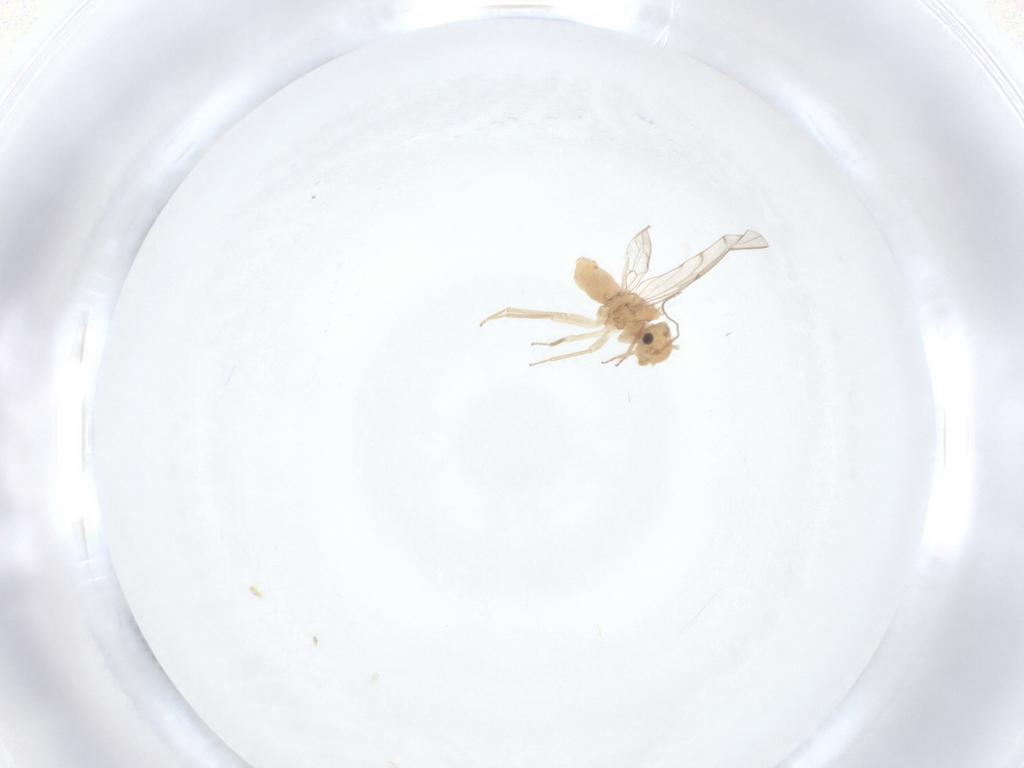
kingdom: Animalia
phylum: Arthropoda
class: Insecta
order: Psocodea
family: Ectopsocidae
